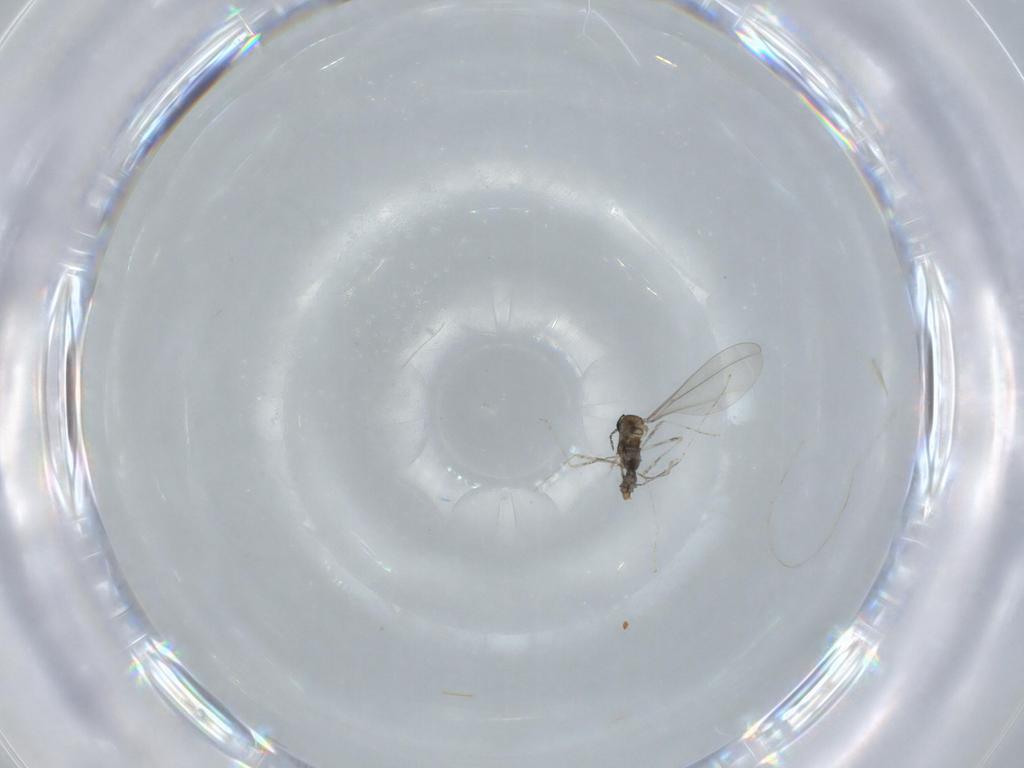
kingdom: Animalia
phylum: Arthropoda
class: Insecta
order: Diptera
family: Cecidomyiidae
